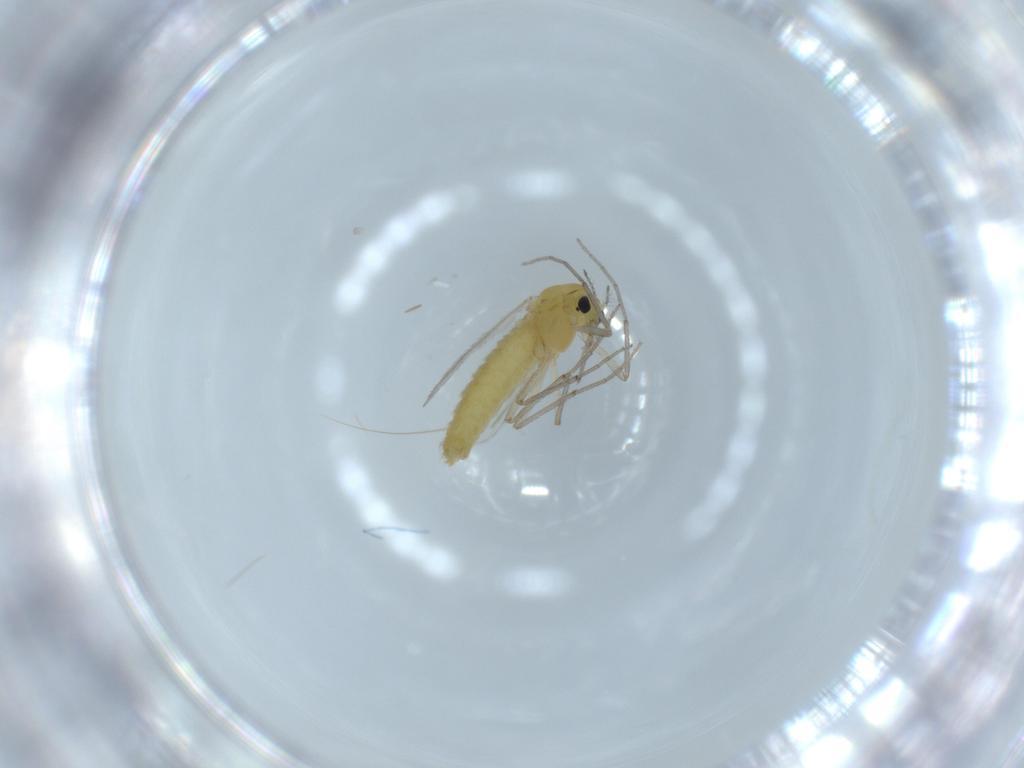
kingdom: Animalia
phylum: Arthropoda
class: Insecta
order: Diptera
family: Chironomidae
